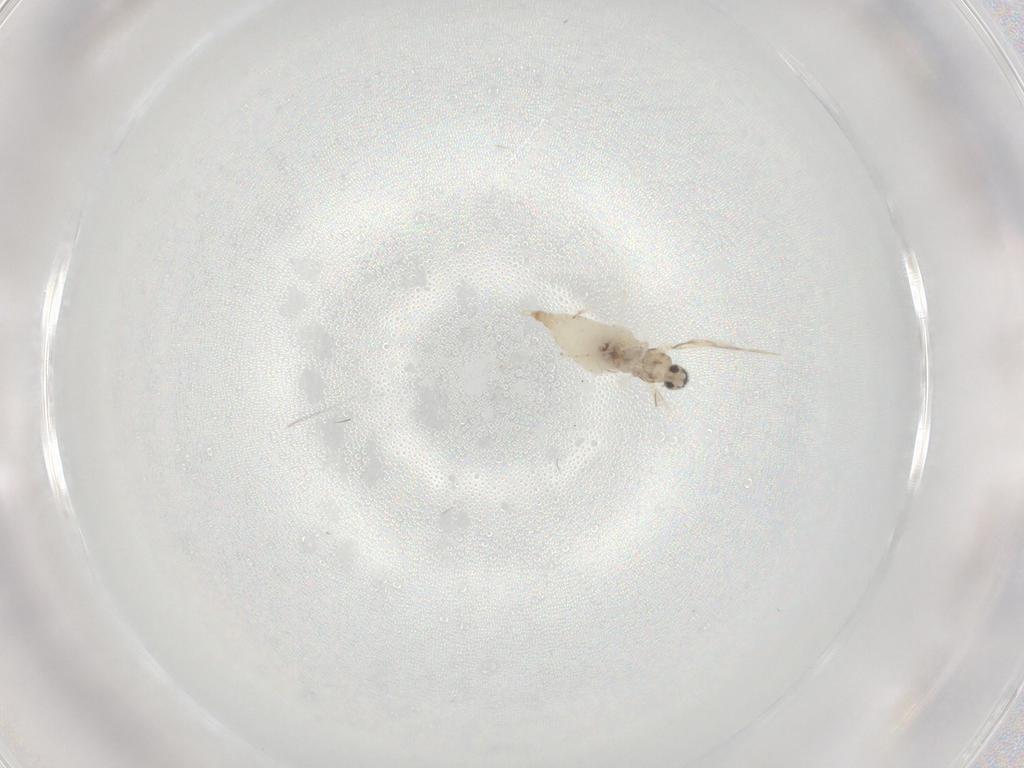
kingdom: Animalia
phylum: Arthropoda
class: Insecta
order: Diptera
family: Cecidomyiidae
